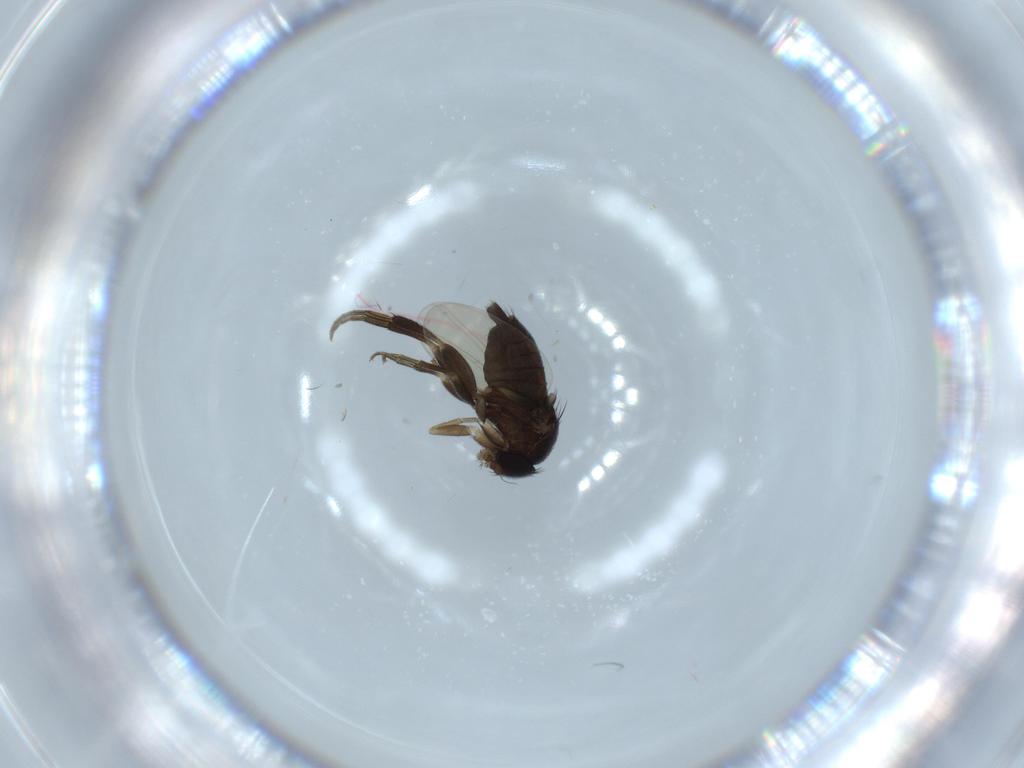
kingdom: Animalia
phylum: Arthropoda
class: Insecta
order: Diptera
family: Phoridae
